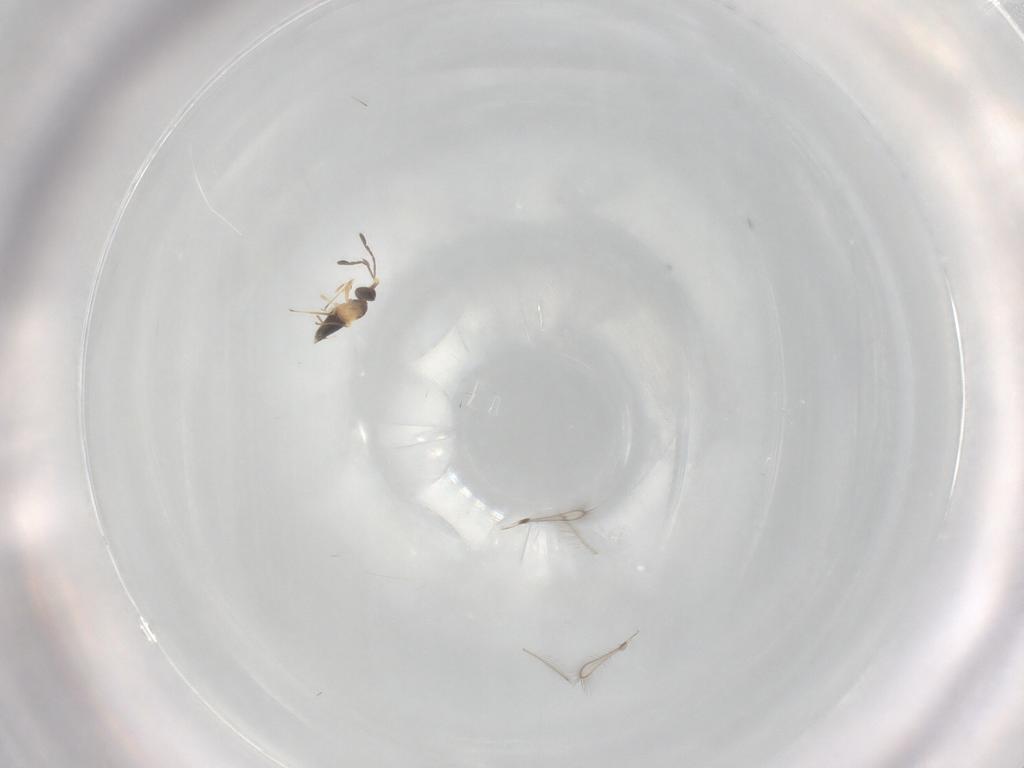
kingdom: Animalia
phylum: Arthropoda
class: Insecta
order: Hymenoptera
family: Mymaridae
